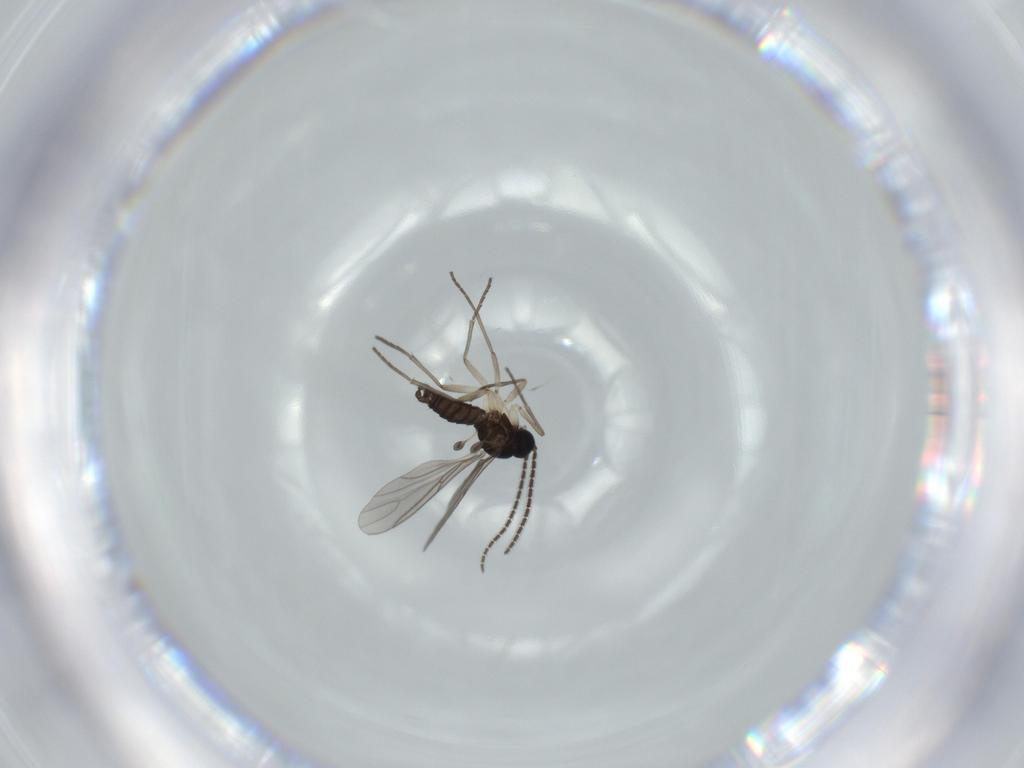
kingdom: Animalia
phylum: Arthropoda
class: Insecta
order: Diptera
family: Sciaridae
